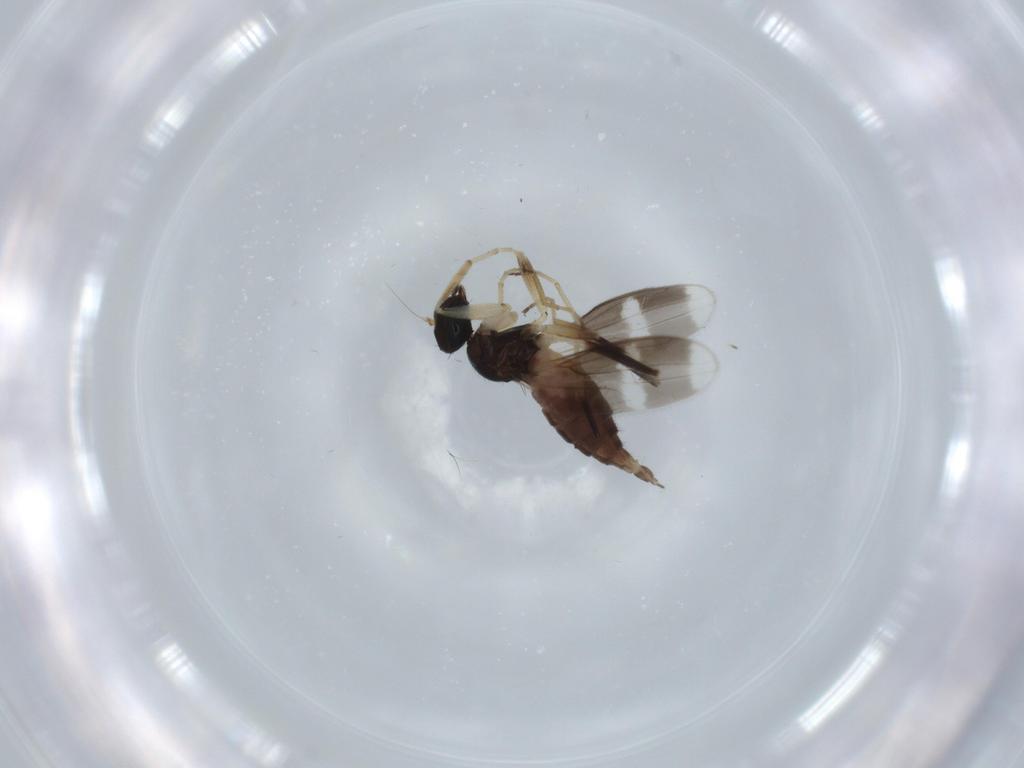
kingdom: Animalia
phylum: Arthropoda
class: Insecta
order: Diptera
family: Hybotidae
